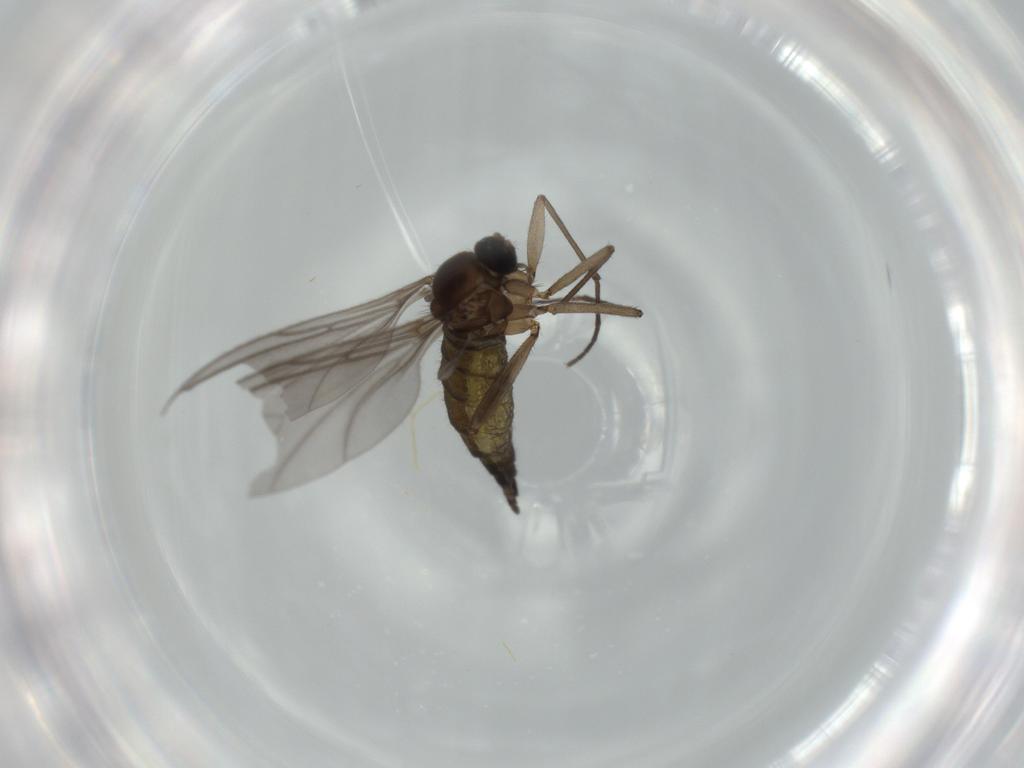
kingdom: Animalia
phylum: Arthropoda
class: Insecta
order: Diptera
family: Sciaridae
